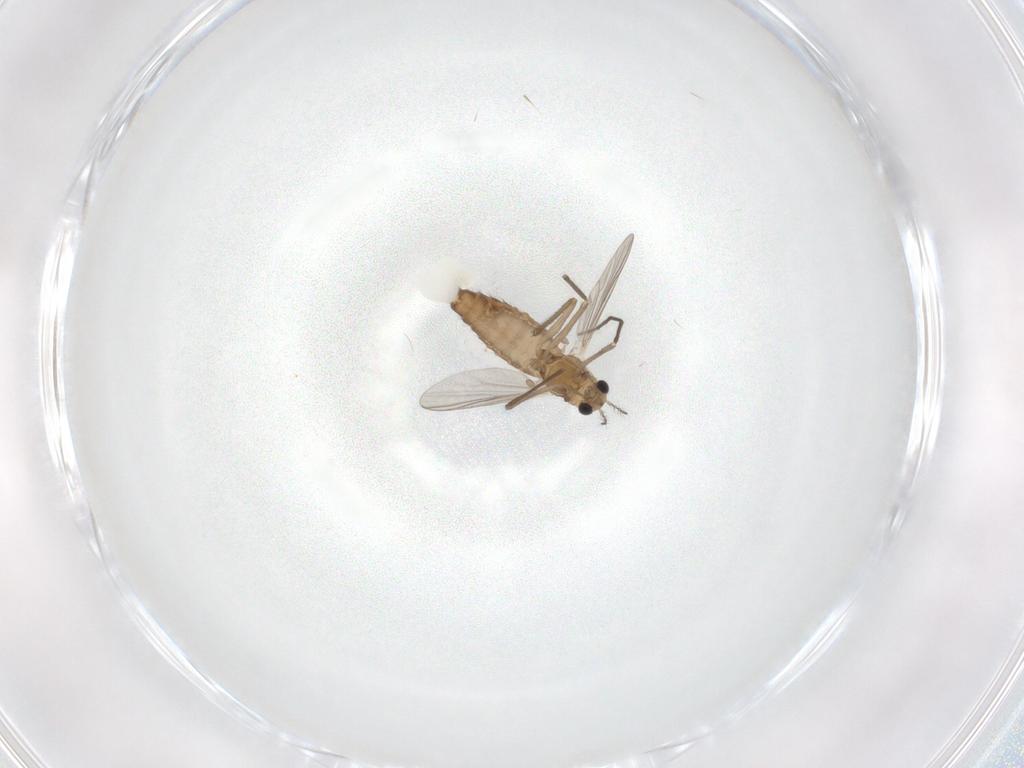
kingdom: Animalia
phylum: Arthropoda
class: Insecta
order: Diptera
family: Chironomidae
